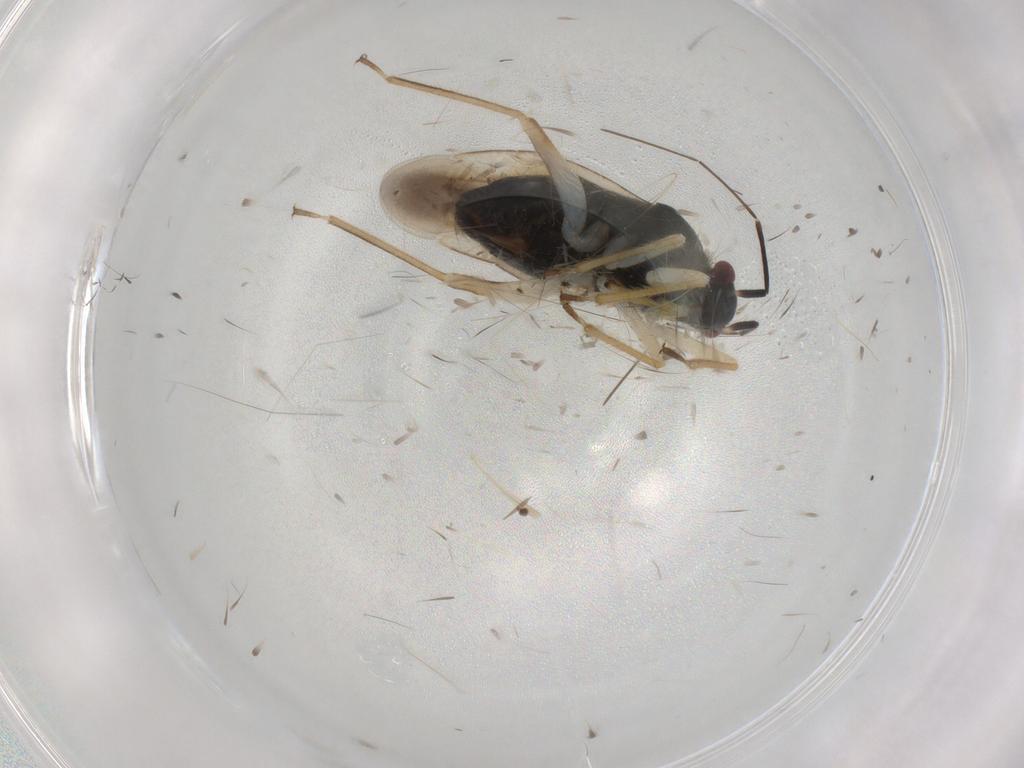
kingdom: Animalia
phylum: Arthropoda
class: Insecta
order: Hemiptera
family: Miridae
